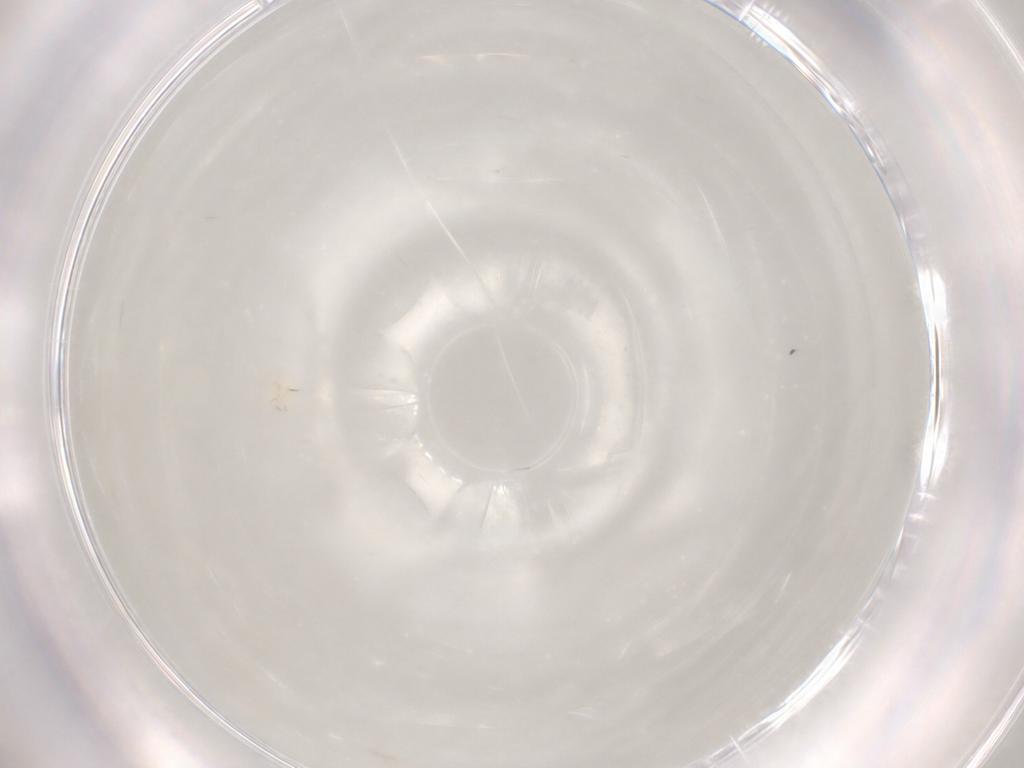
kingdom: Animalia
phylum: Arthropoda
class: Arachnida
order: Trombidiformes
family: Anystidae
